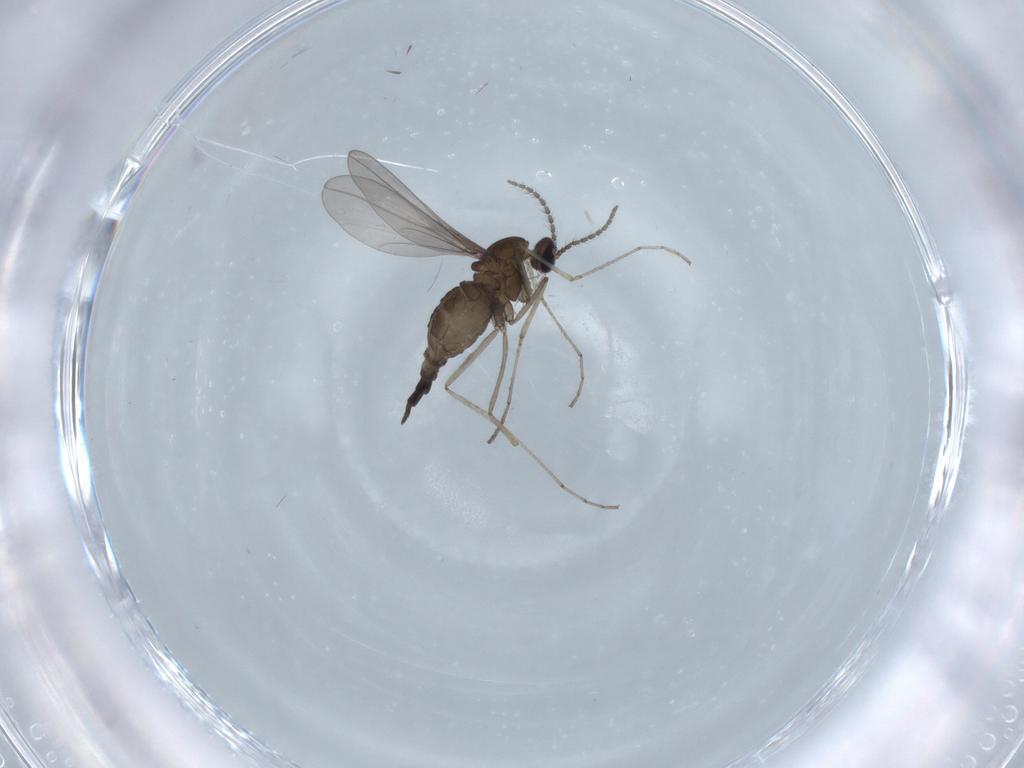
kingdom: Animalia
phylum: Arthropoda
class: Insecta
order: Diptera
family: Cecidomyiidae
